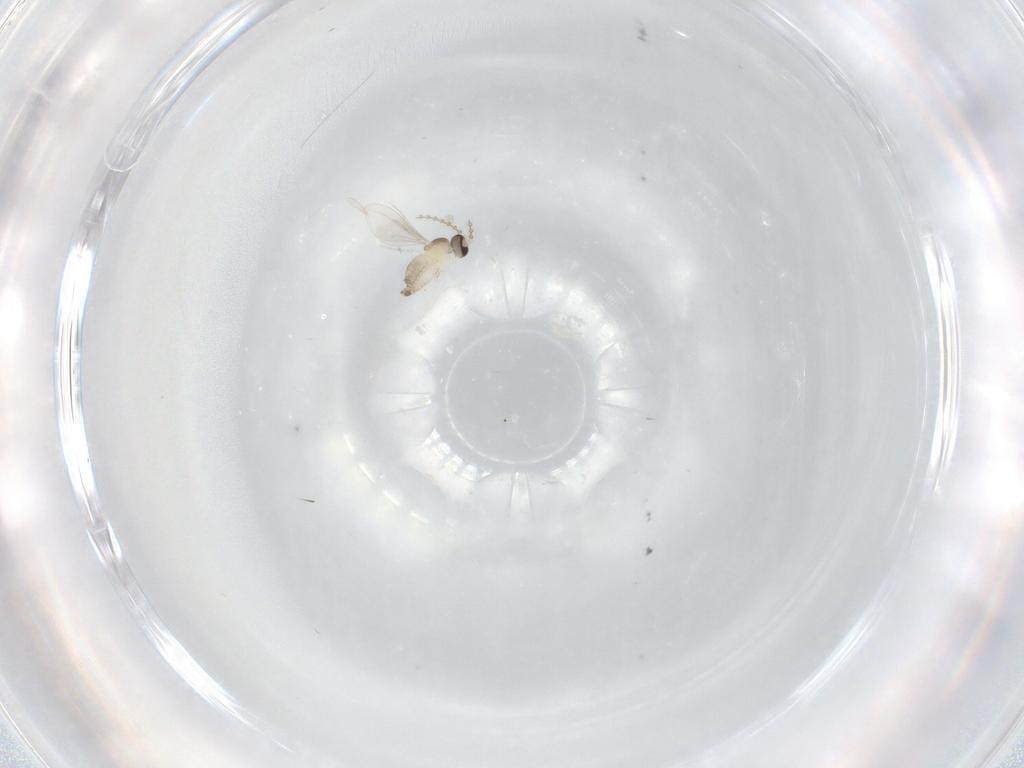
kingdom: Animalia
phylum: Arthropoda
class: Insecta
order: Diptera
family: Cecidomyiidae
